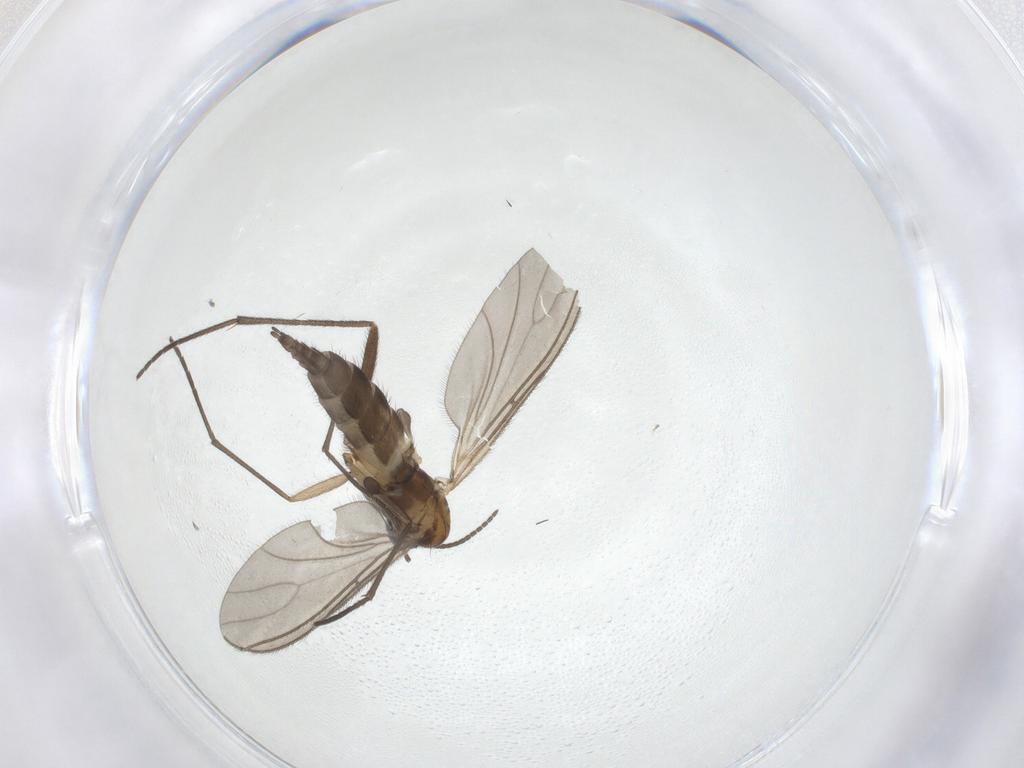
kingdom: Animalia
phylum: Arthropoda
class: Insecta
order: Diptera
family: Sciaridae
